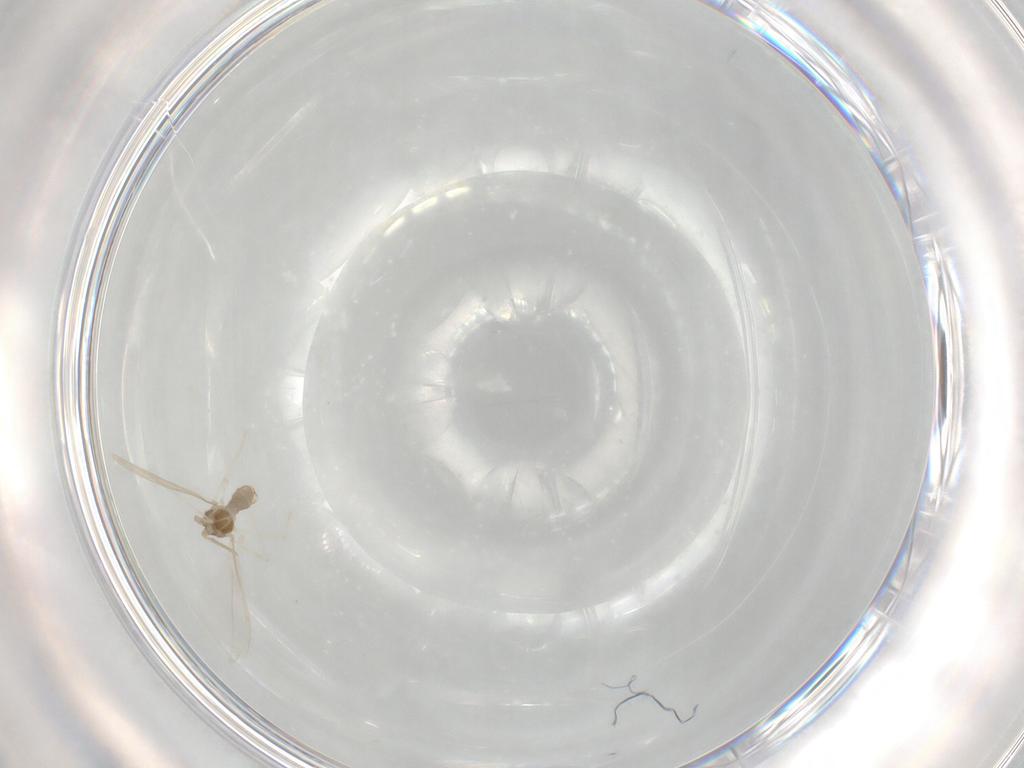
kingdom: Animalia
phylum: Arthropoda
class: Insecta
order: Diptera
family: Cecidomyiidae
